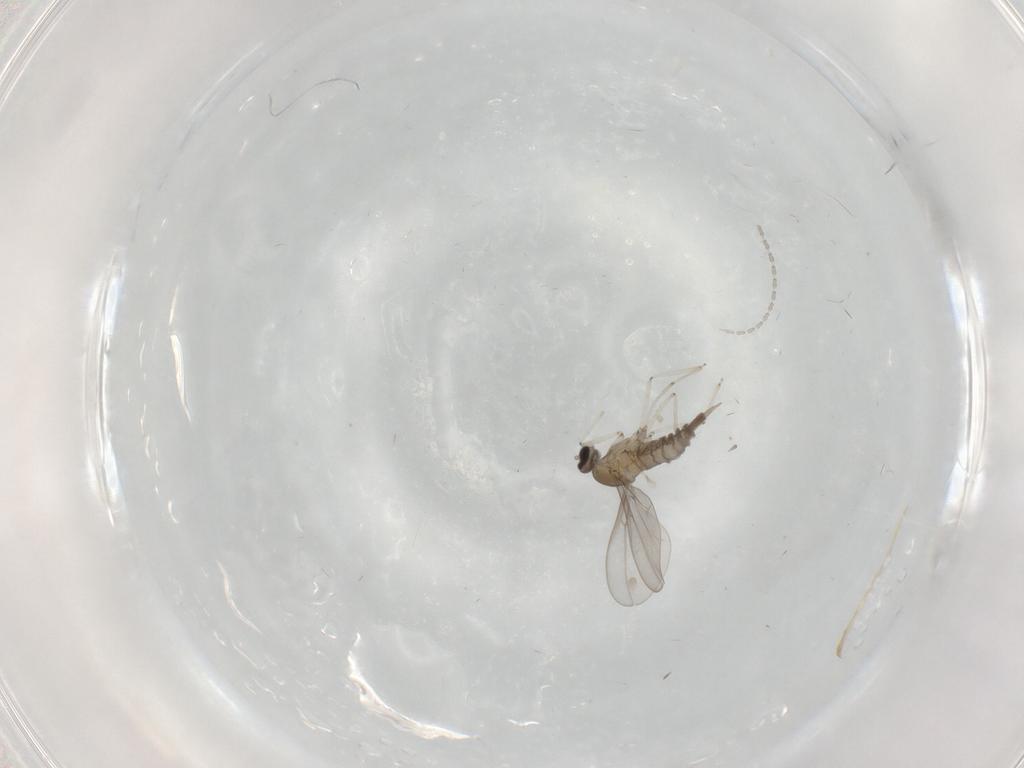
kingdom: Animalia
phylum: Arthropoda
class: Insecta
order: Diptera
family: Cecidomyiidae
